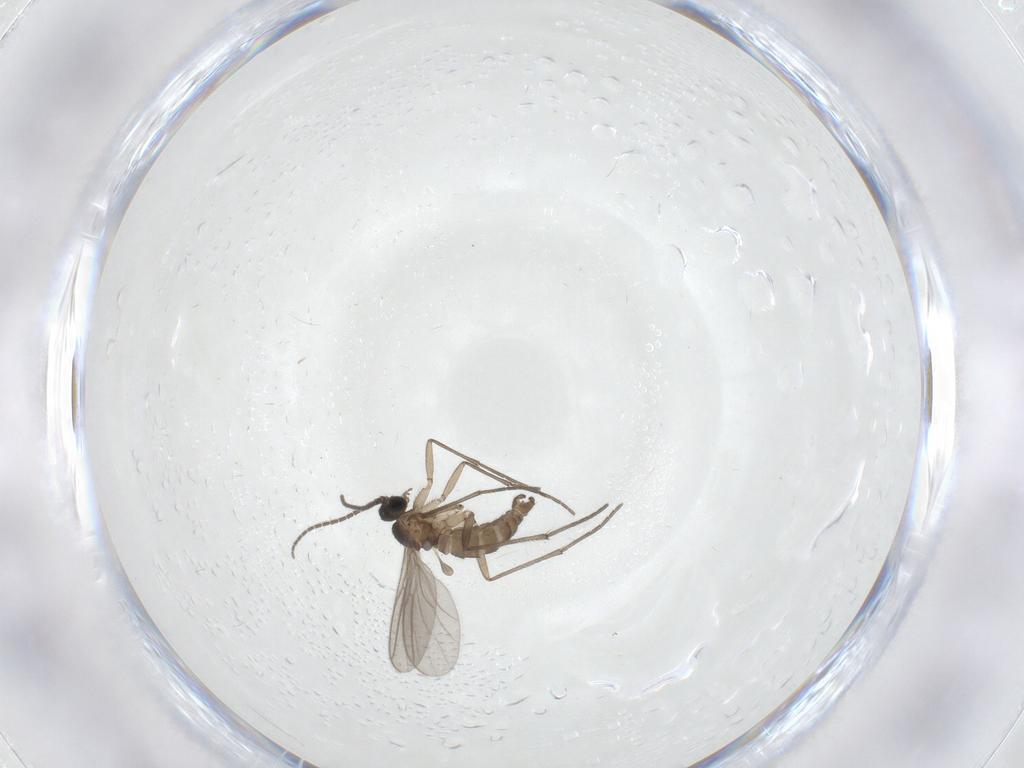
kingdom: Animalia
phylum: Arthropoda
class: Insecta
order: Diptera
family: Sciaridae
